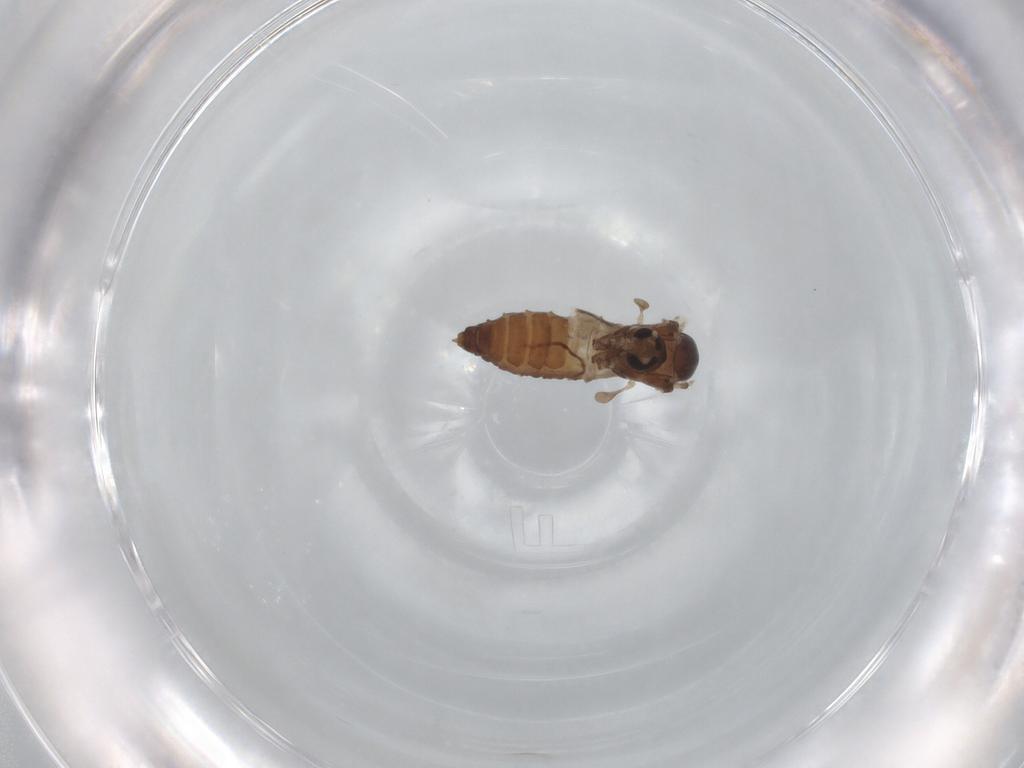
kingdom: Animalia
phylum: Arthropoda
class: Insecta
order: Diptera
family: Psychodidae
